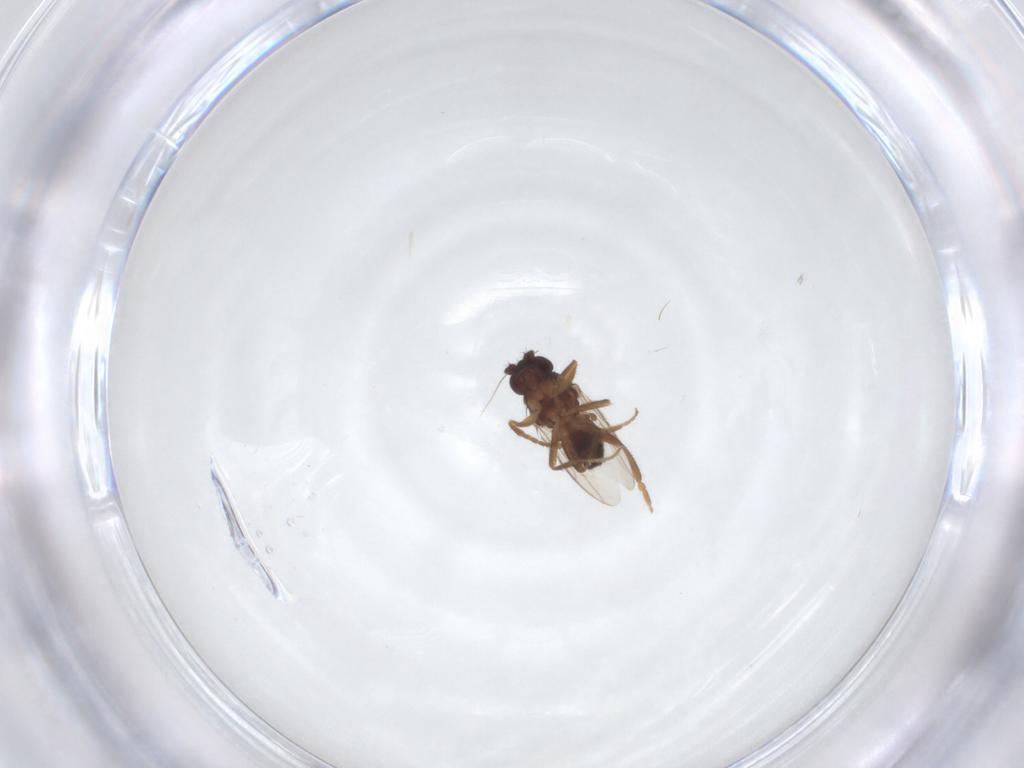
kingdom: Animalia
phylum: Arthropoda
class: Insecta
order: Diptera
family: Sphaeroceridae
